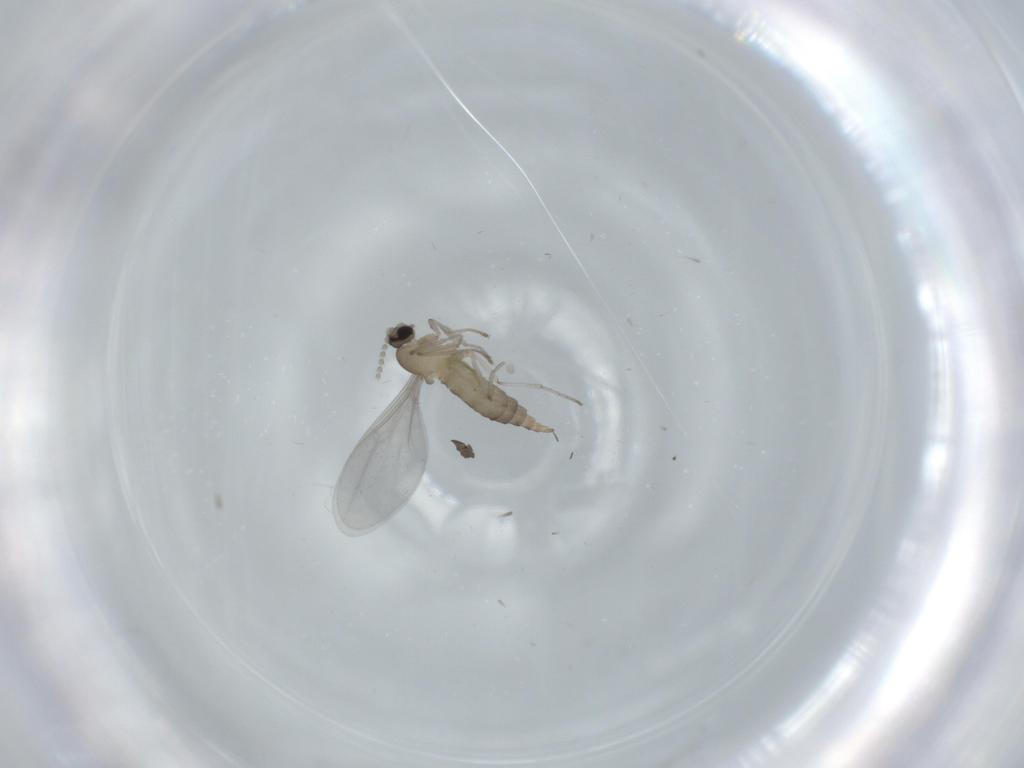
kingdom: Animalia
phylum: Arthropoda
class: Insecta
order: Diptera
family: Cecidomyiidae
